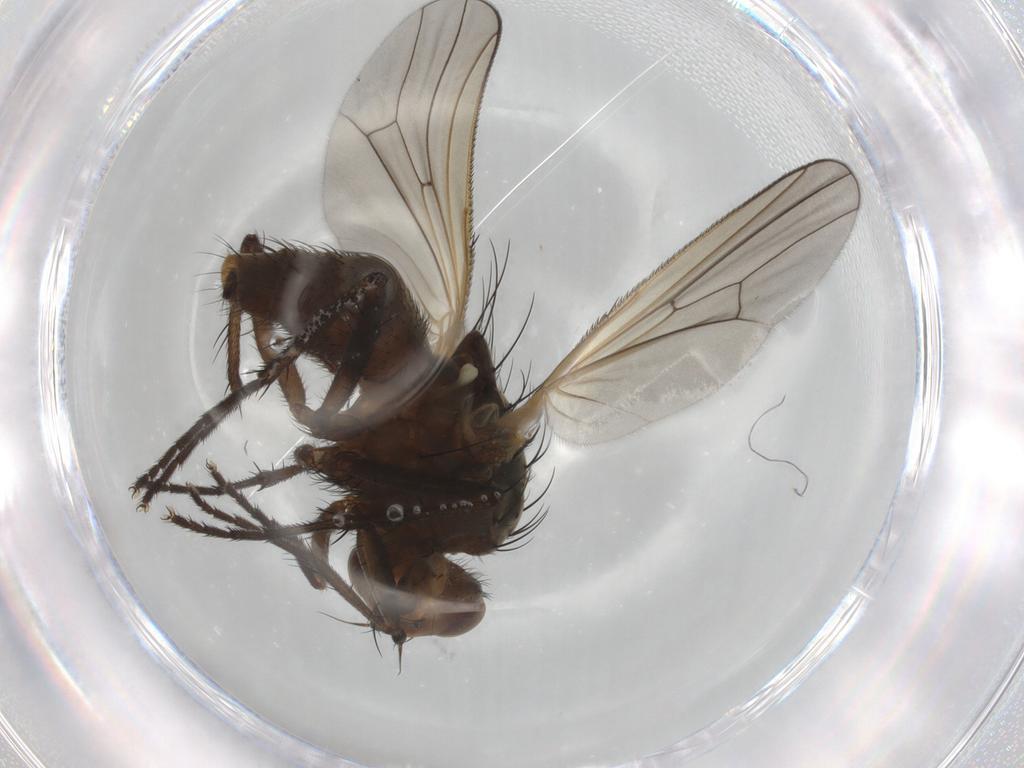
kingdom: Animalia
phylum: Arthropoda
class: Insecta
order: Diptera
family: Anthomyiidae
